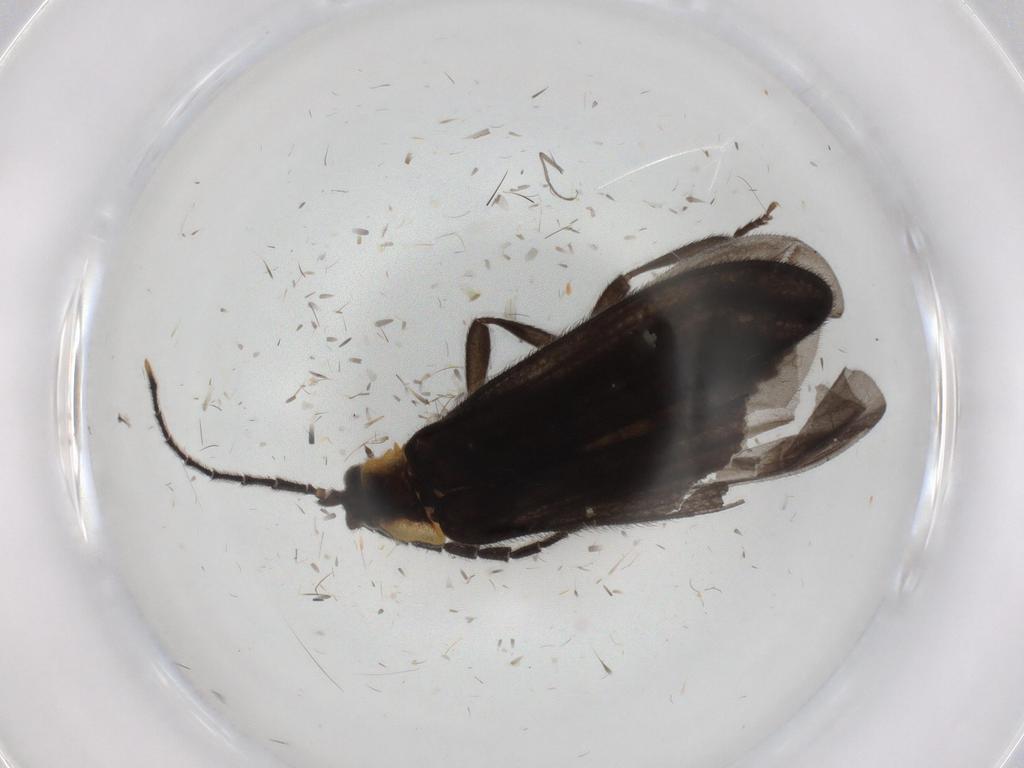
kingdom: Animalia
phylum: Arthropoda
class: Insecta
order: Coleoptera
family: Lycidae
